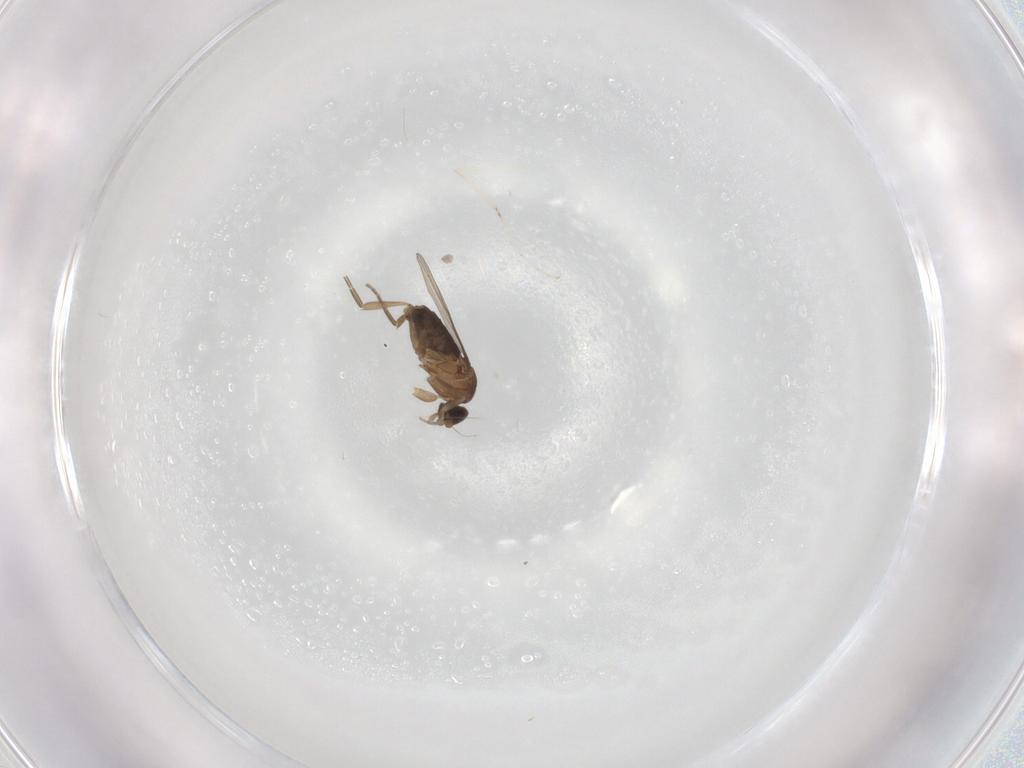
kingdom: Animalia
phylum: Arthropoda
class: Insecta
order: Diptera
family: Phoridae
